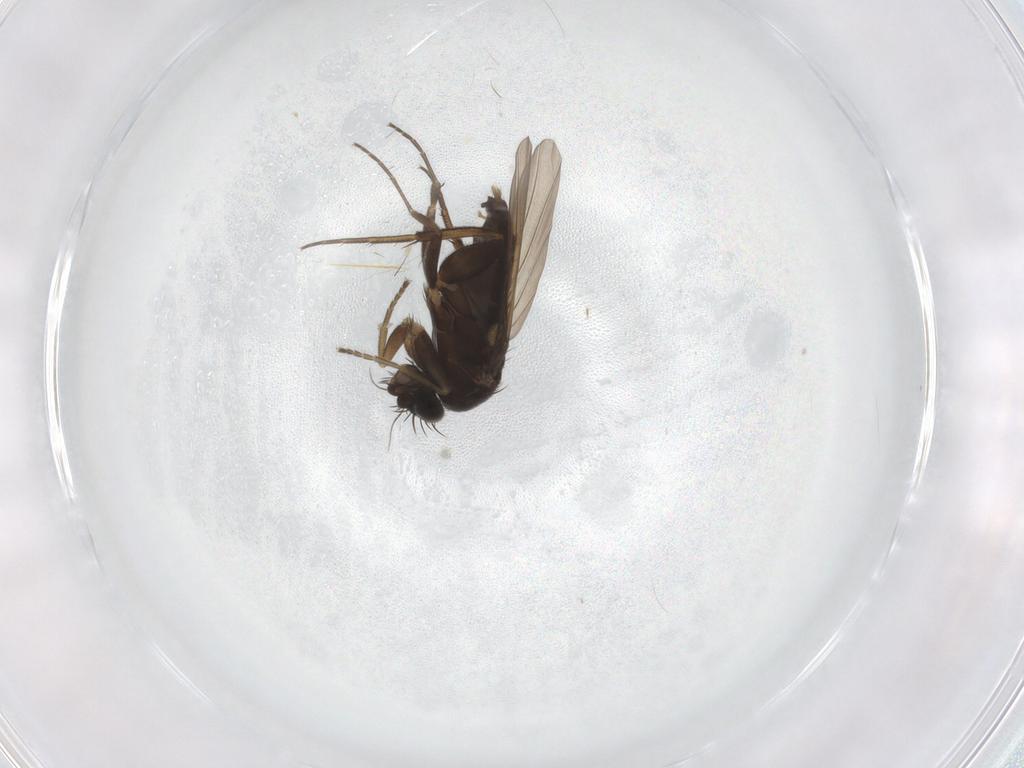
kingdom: Animalia
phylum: Arthropoda
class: Insecta
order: Diptera
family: Phoridae
